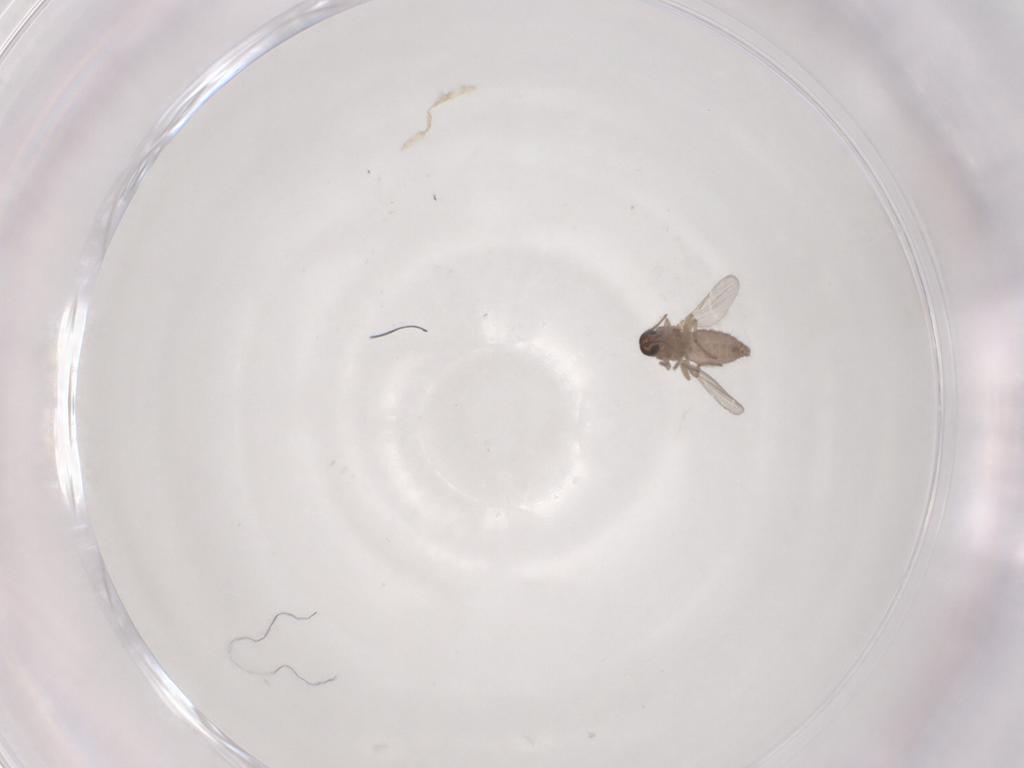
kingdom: Animalia
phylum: Arthropoda
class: Insecta
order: Diptera
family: Ceratopogonidae
